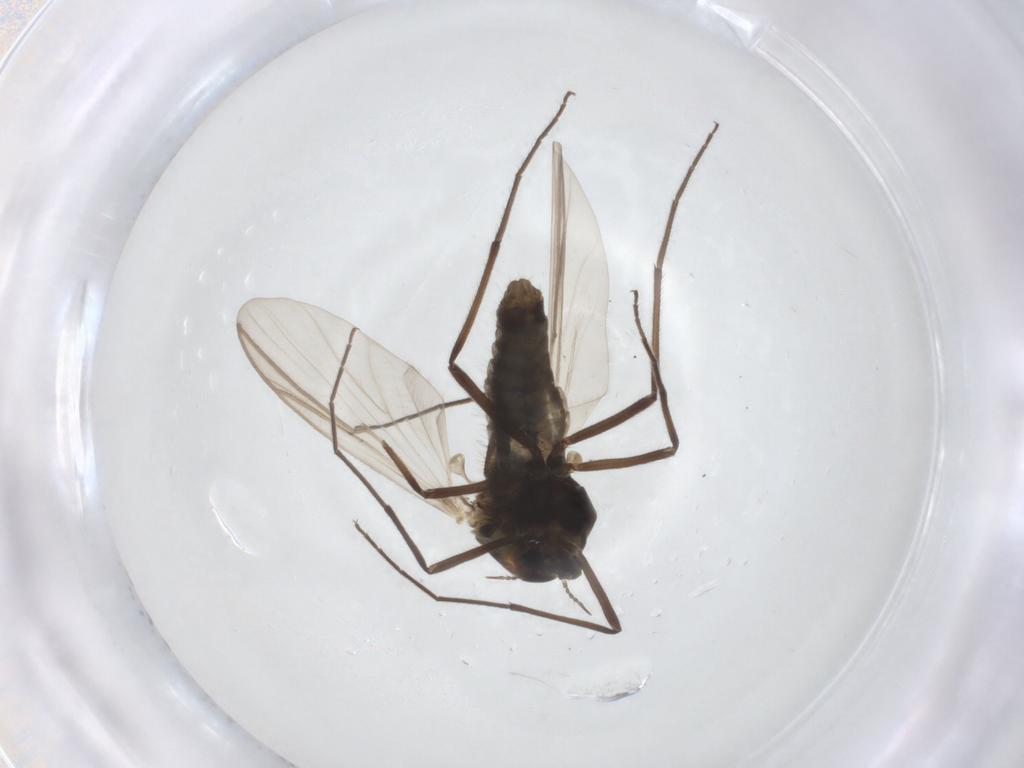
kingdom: Animalia
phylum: Arthropoda
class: Insecta
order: Diptera
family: Chironomidae
